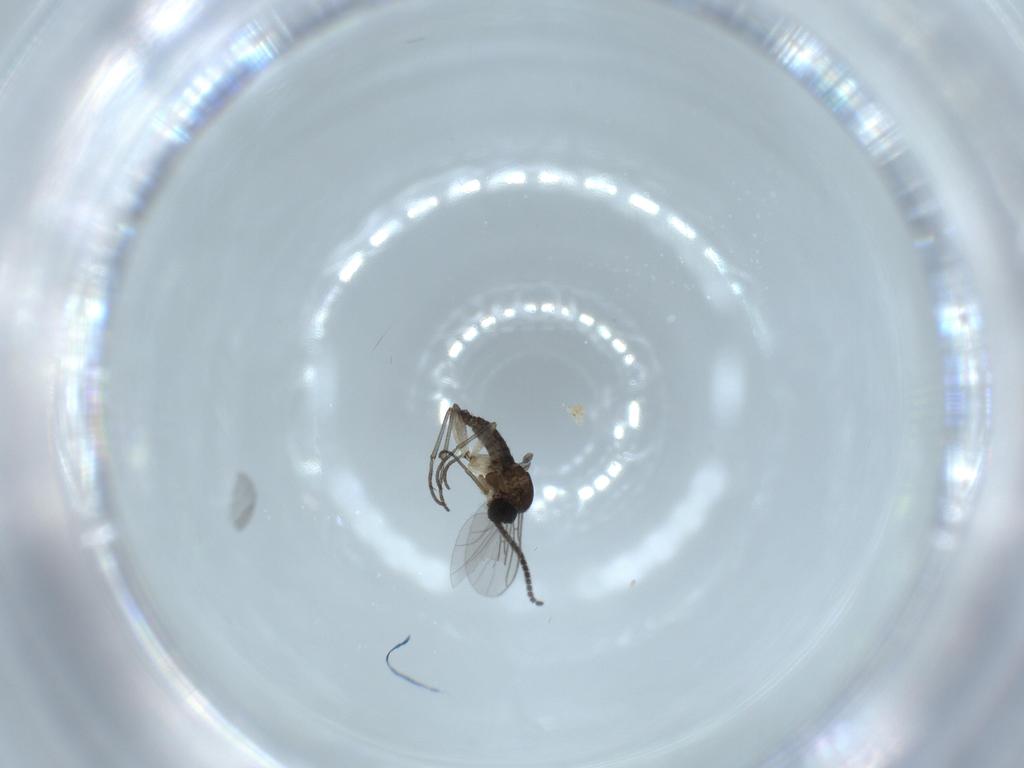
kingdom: Animalia
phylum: Arthropoda
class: Insecta
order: Diptera
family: Sciaridae
